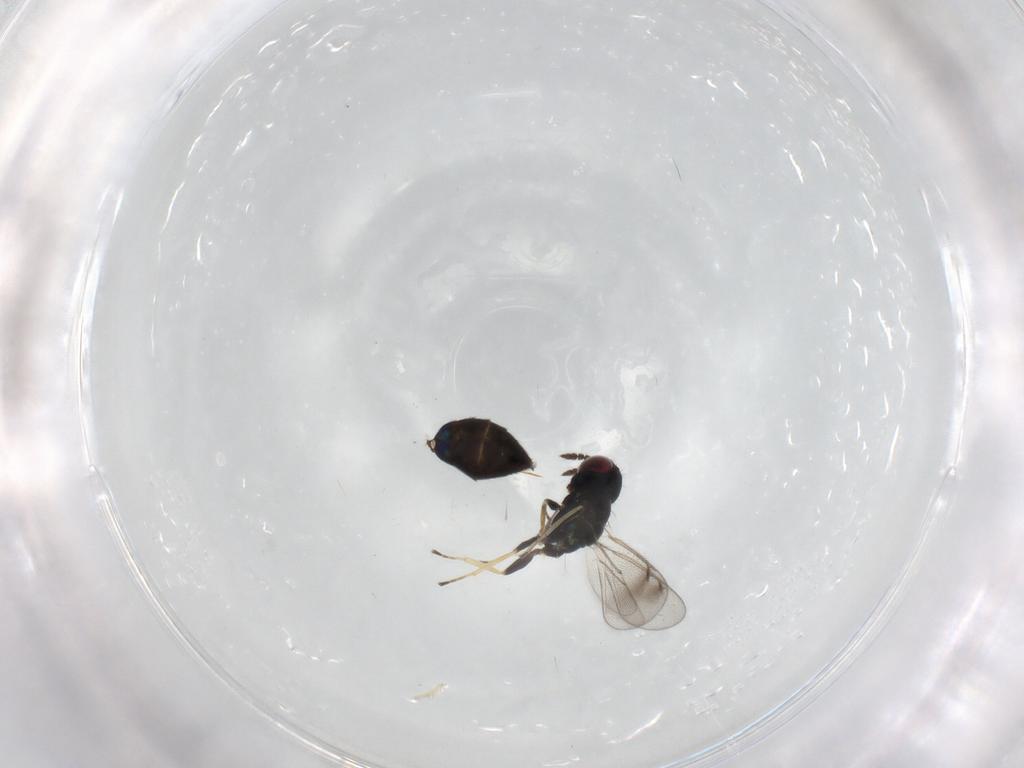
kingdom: Animalia
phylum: Arthropoda
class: Insecta
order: Hymenoptera
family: Eulophidae
